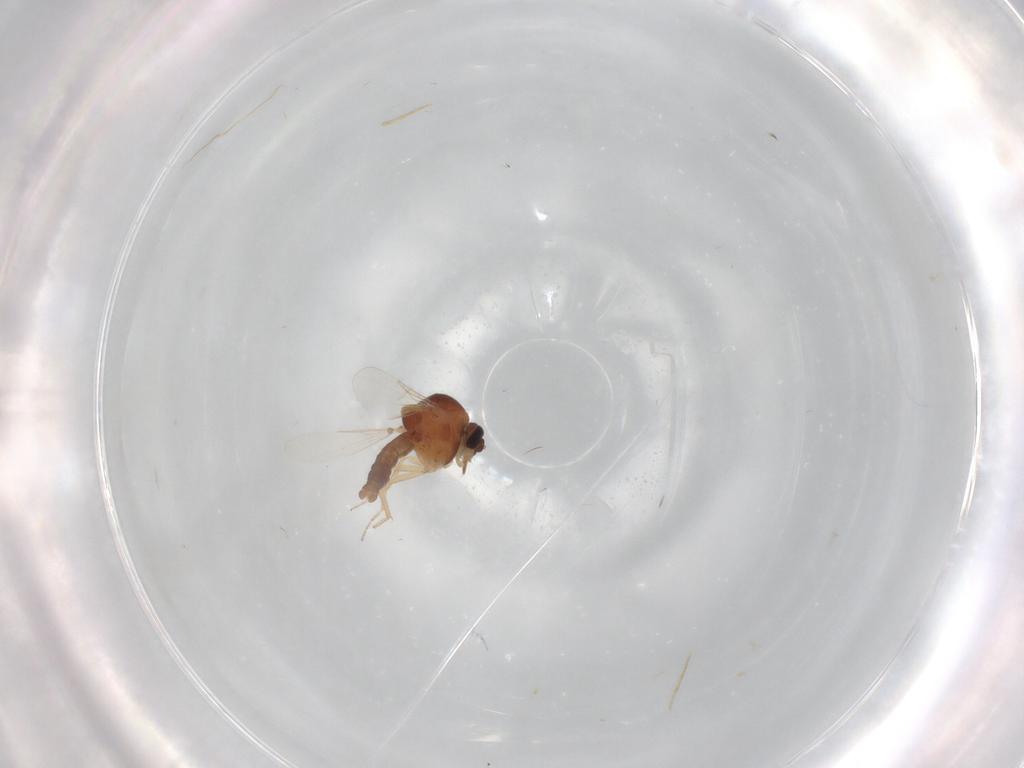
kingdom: Animalia
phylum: Arthropoda
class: Insecta
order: Diptera
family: Ceratopogonidae
